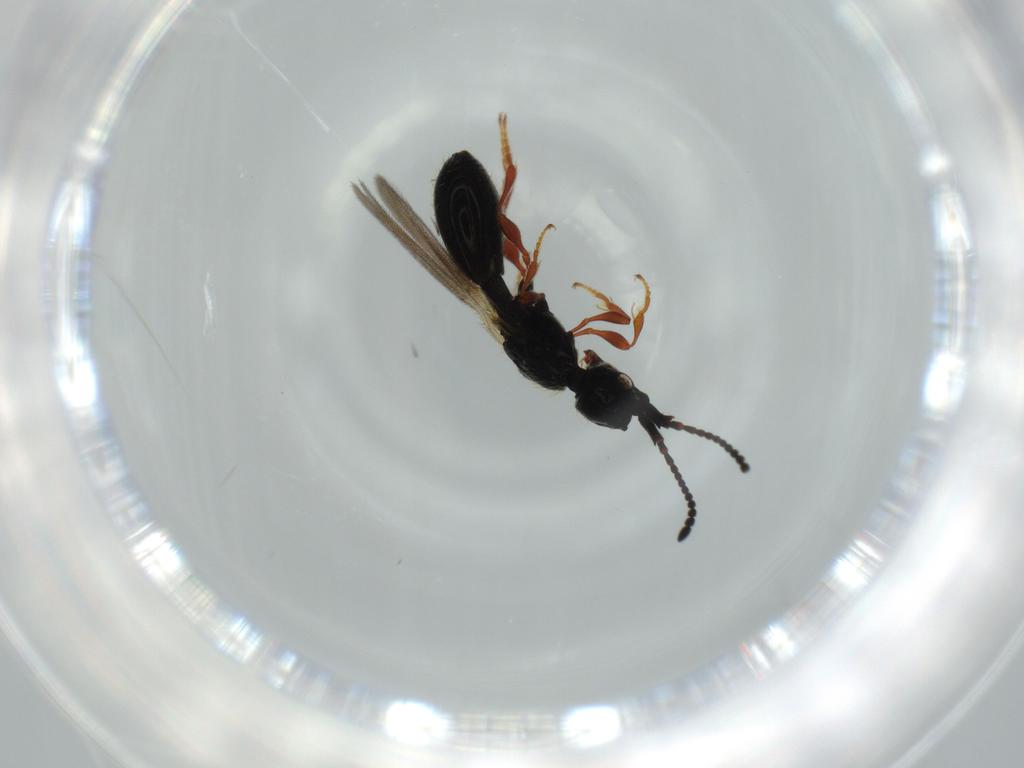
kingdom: Animalia
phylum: Arthropoda
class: Insecta
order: Hymenoptera
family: Diapriidae
